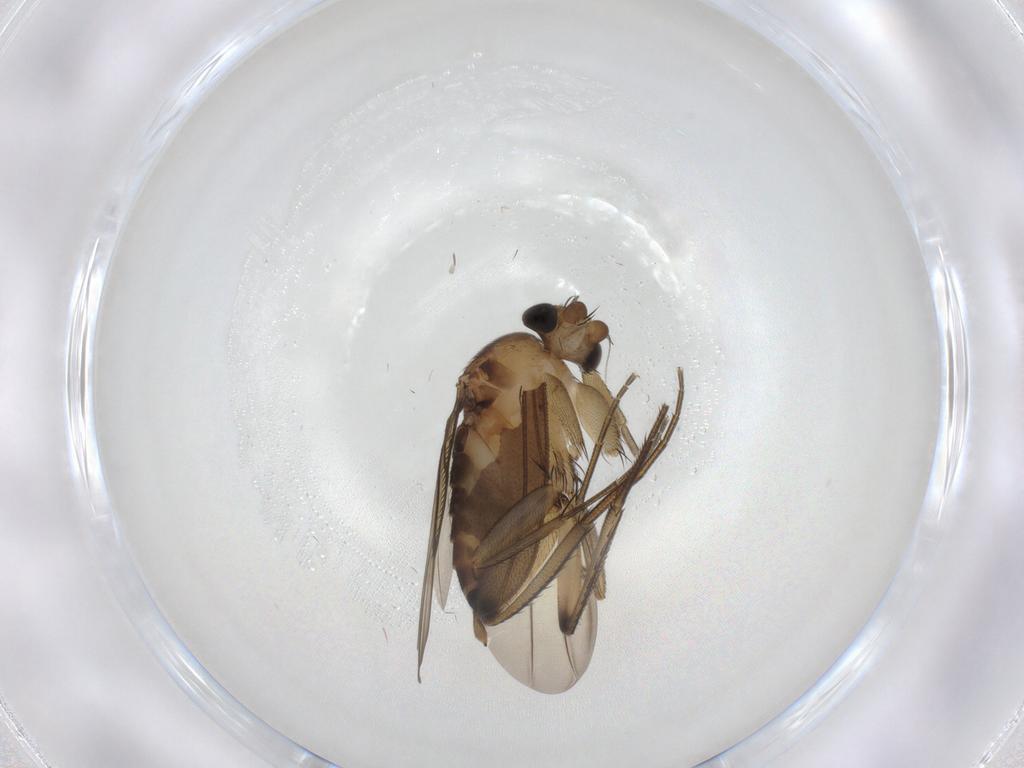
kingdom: Animalia
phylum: Arthropoda
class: Insecta
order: Diptera
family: Phoridae
